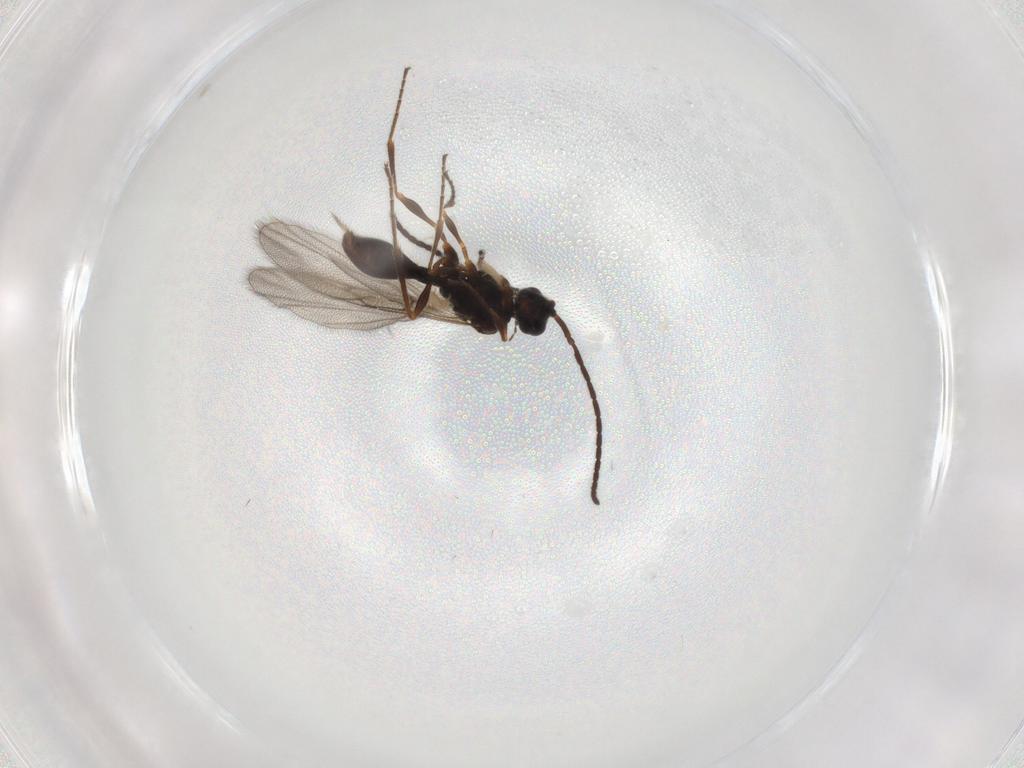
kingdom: Animalia
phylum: Arthropoda
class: Insecta
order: Hymenoptera
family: Diapriidae
